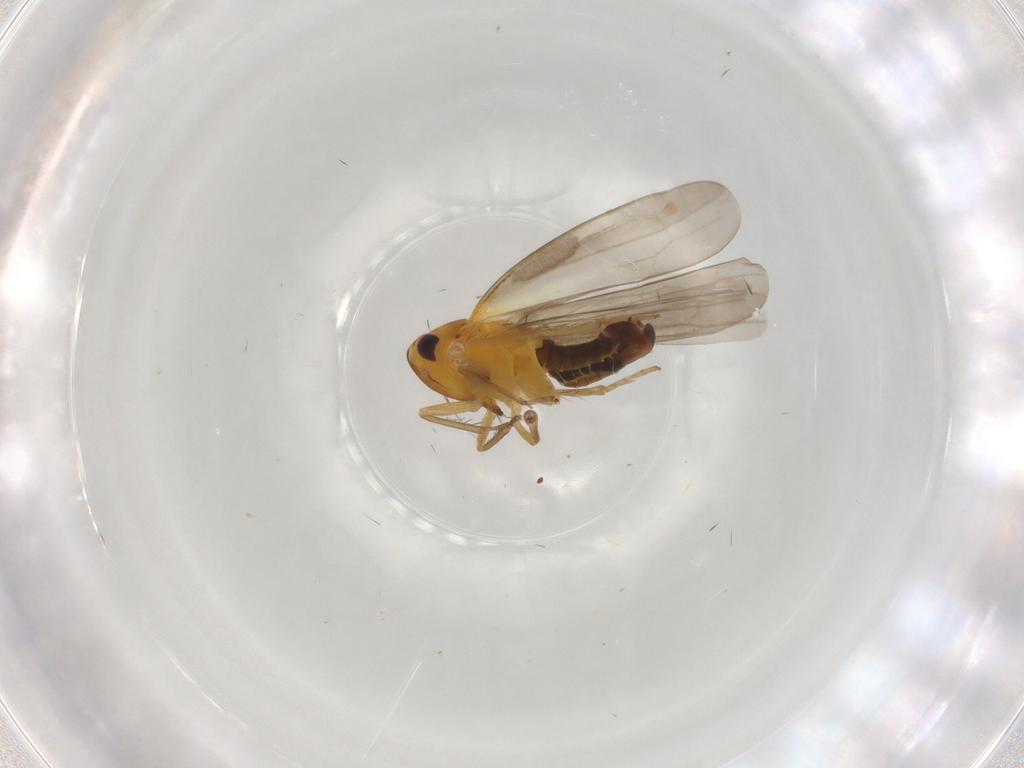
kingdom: Animalia
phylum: Arthropoda
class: Insecta
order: Hemiptera
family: Cicadellidae
